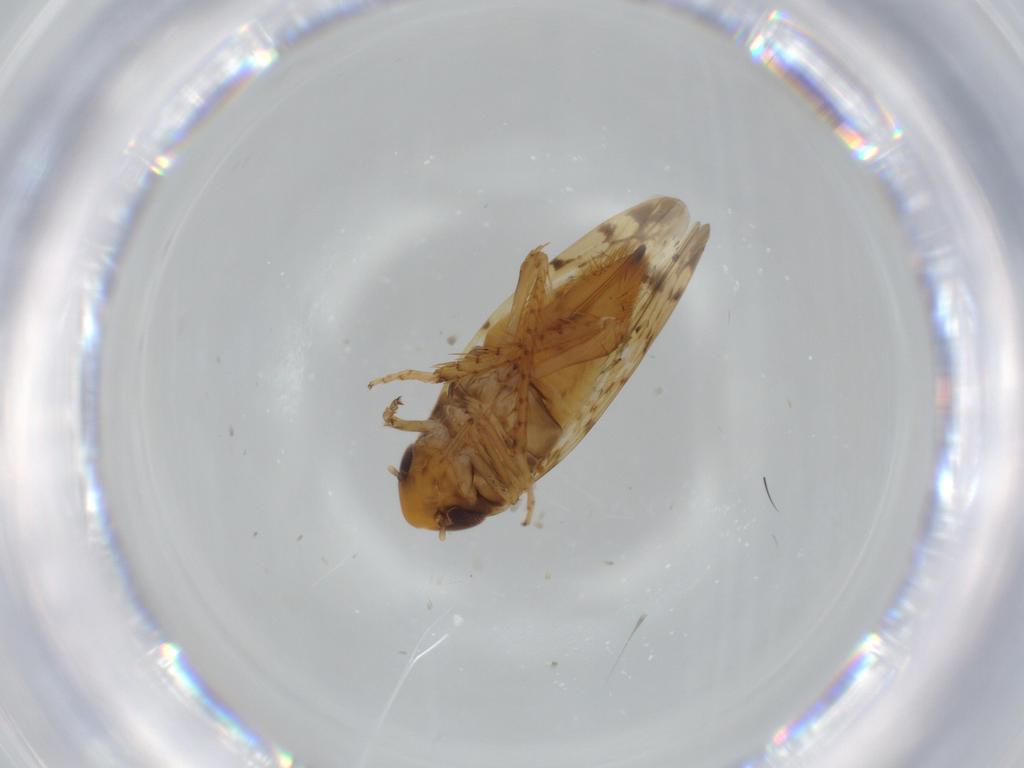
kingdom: Animalia
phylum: Arthropoda
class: Insecta
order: Hemiptera
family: Cicadellidae
